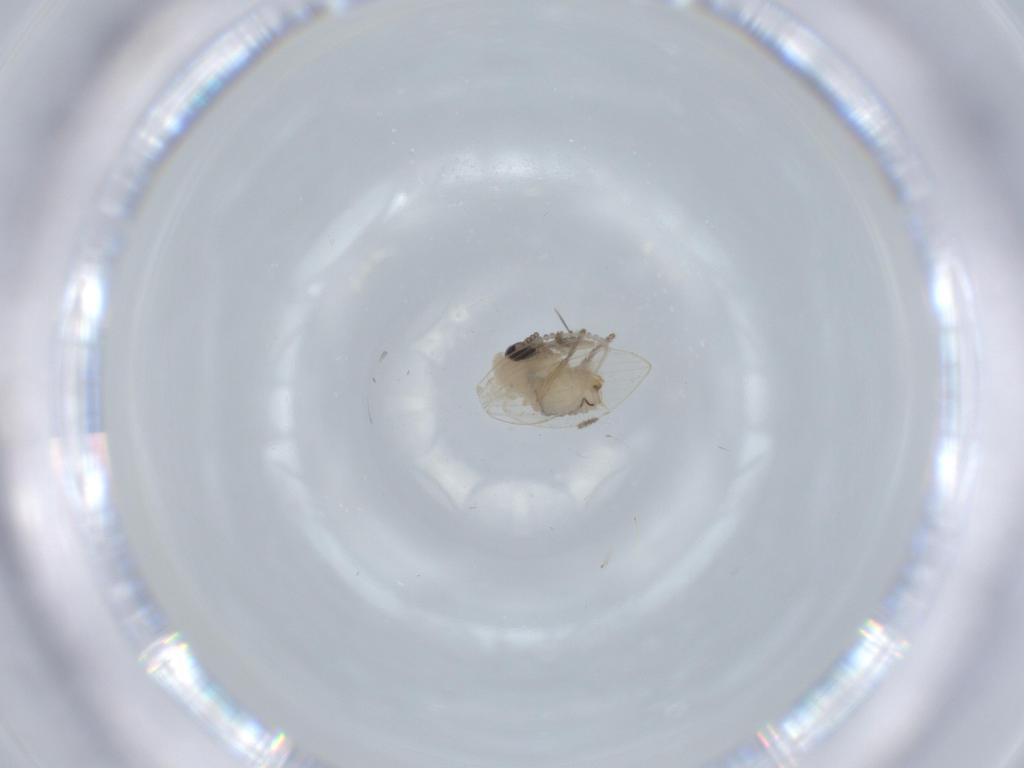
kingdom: Animalia
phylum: Arthropoda
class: Insecta
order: Diptera
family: Psychodidae
